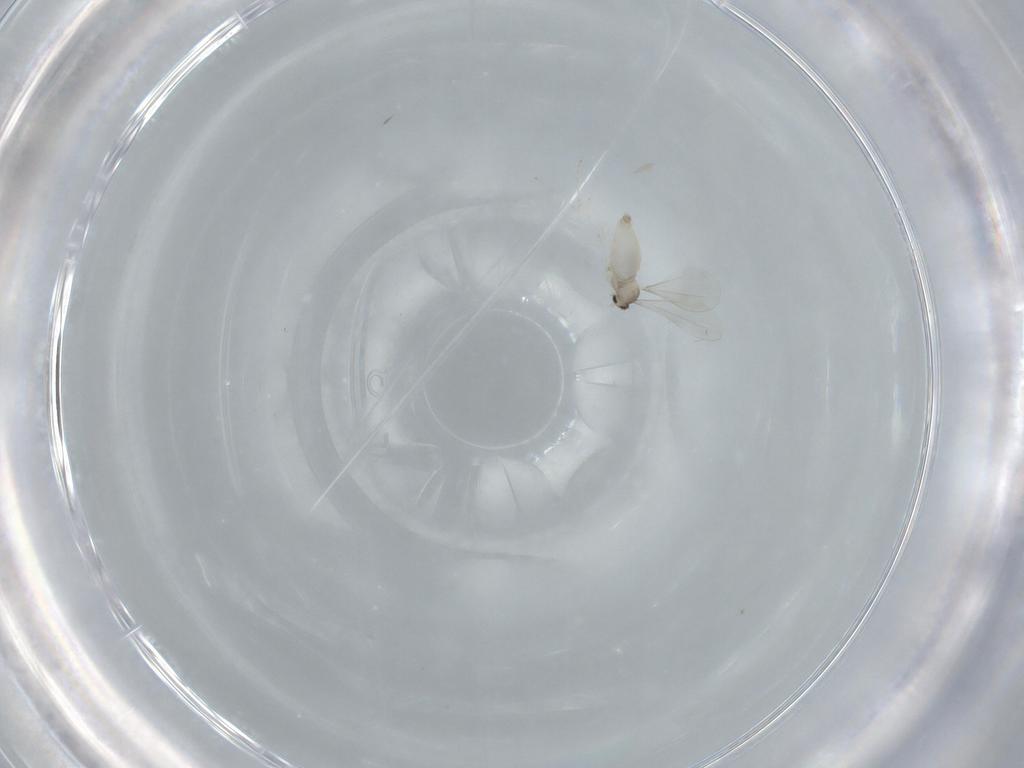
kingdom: Animalia
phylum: Arthropoda
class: Insecta
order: Diptera
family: Cecidomyiidae
